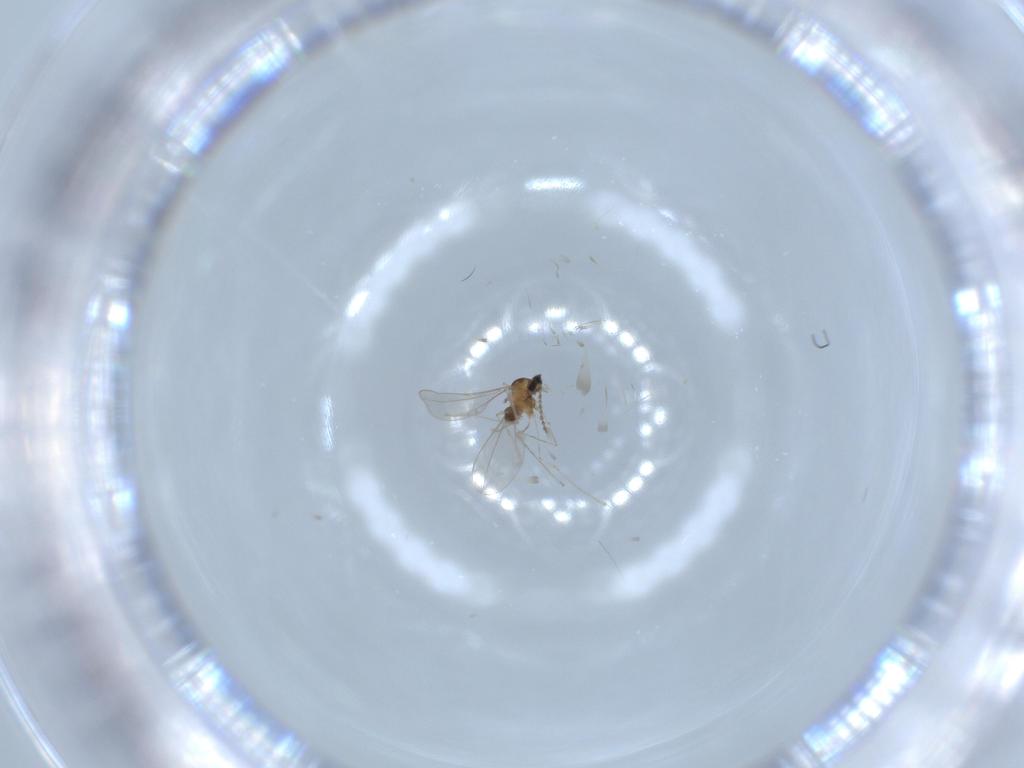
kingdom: Animalia
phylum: Arthropoda
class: Insecta
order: Diptera
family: Cecidomyiidae
